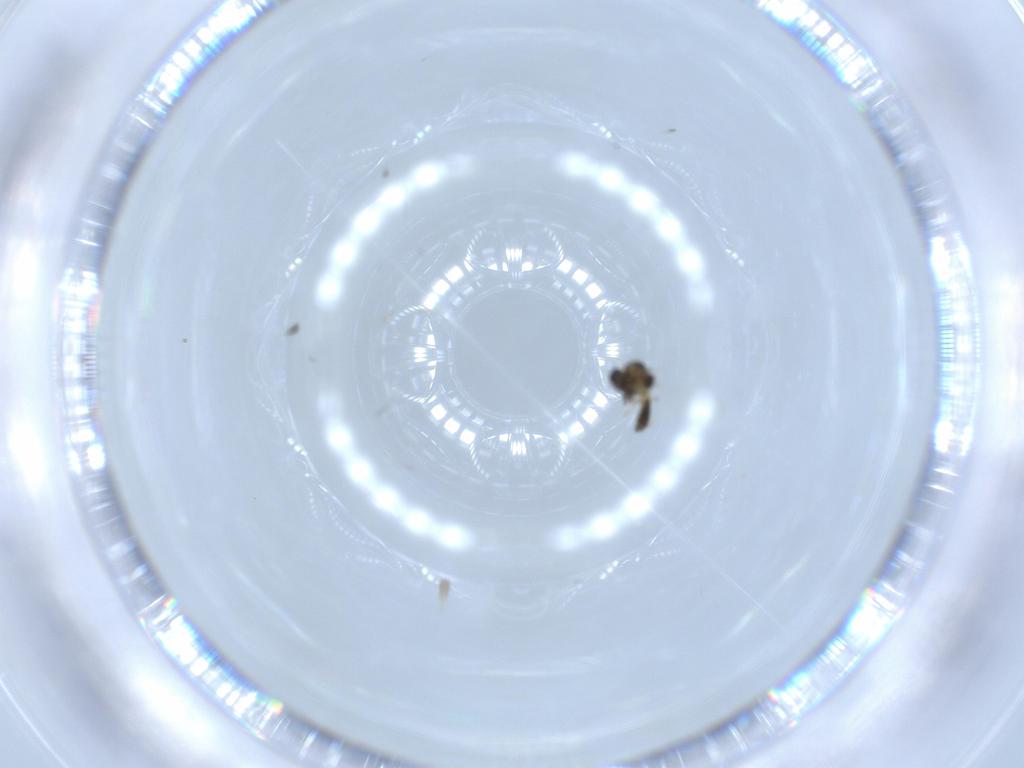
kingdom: Animalia
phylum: Arthropoda
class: Insecta
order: Diptera
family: Chironomidae
